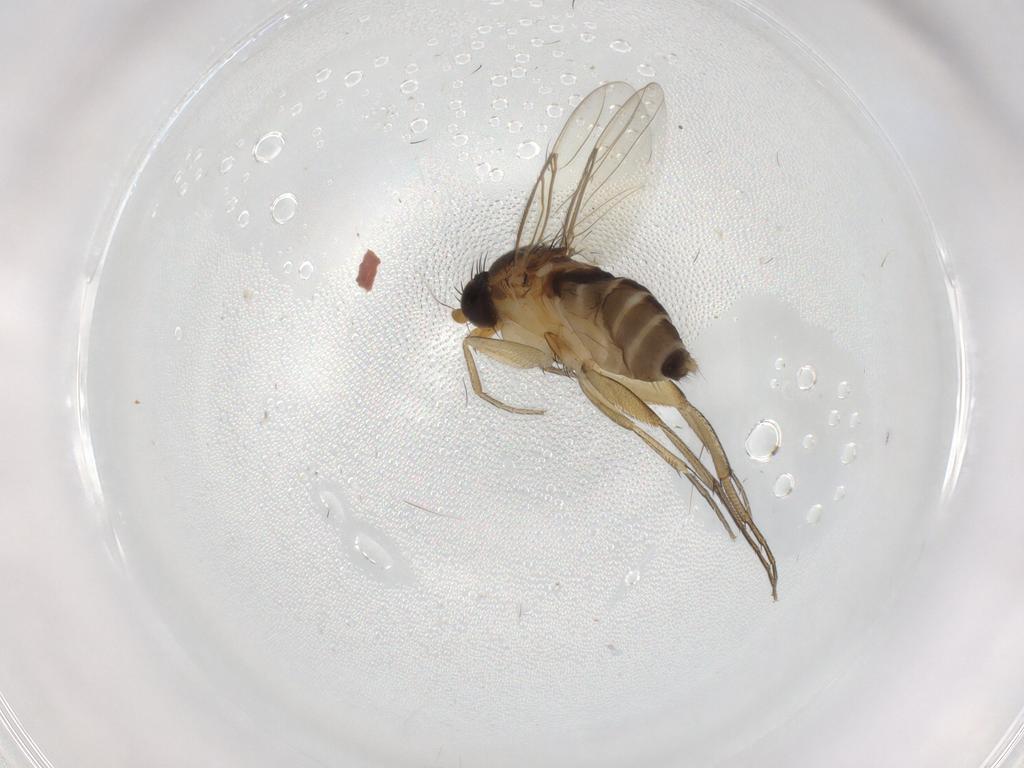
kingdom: Animalia
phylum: Arthropoda
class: Insecta
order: Diptera
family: Phoridae
